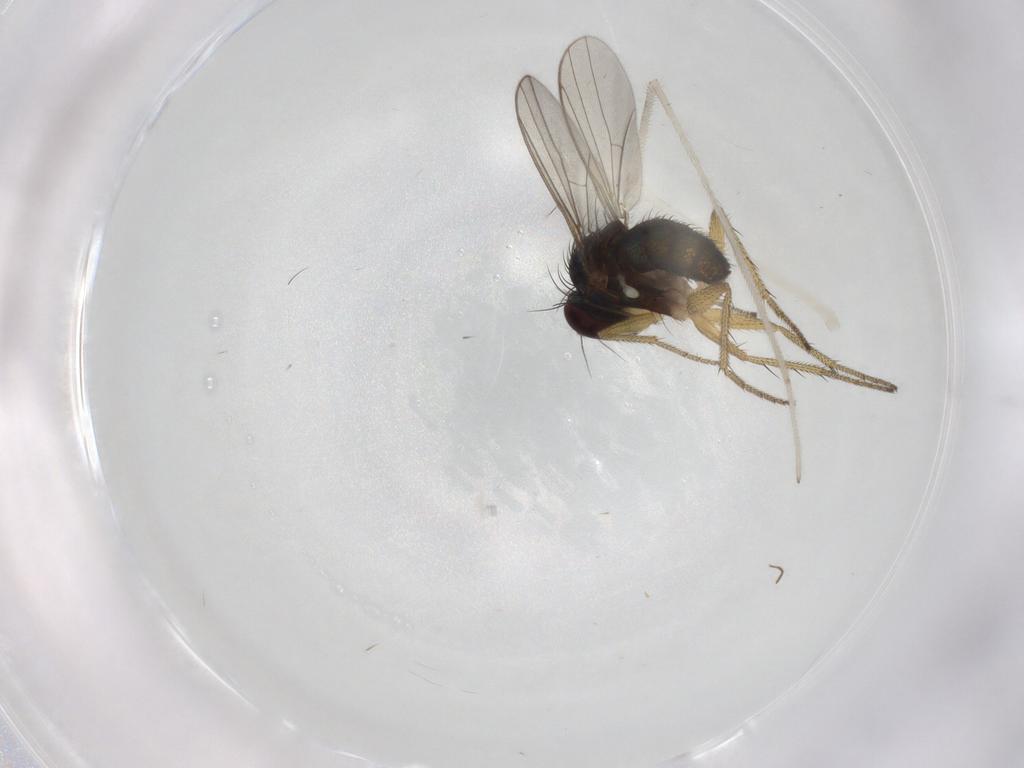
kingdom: Animalia
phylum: Arthropoda
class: Insecta
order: Diptera
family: Dolichopodidae
